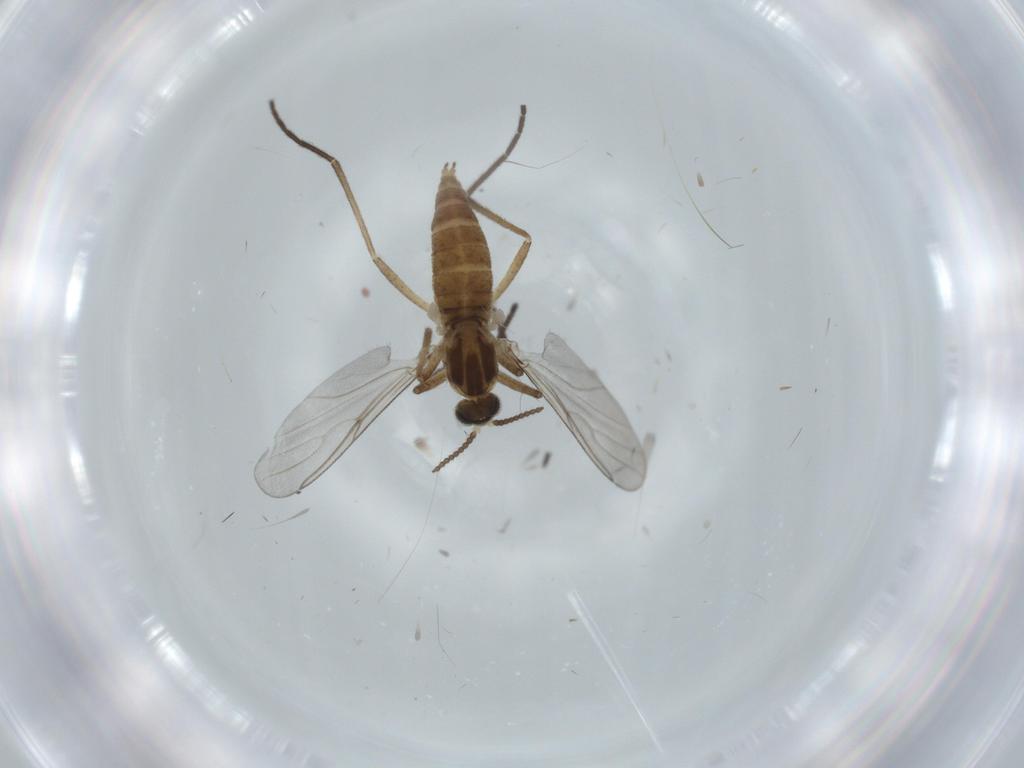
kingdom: Animalia
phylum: Arthropoda
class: Insecta
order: Diptera
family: Cecidomyiidae
